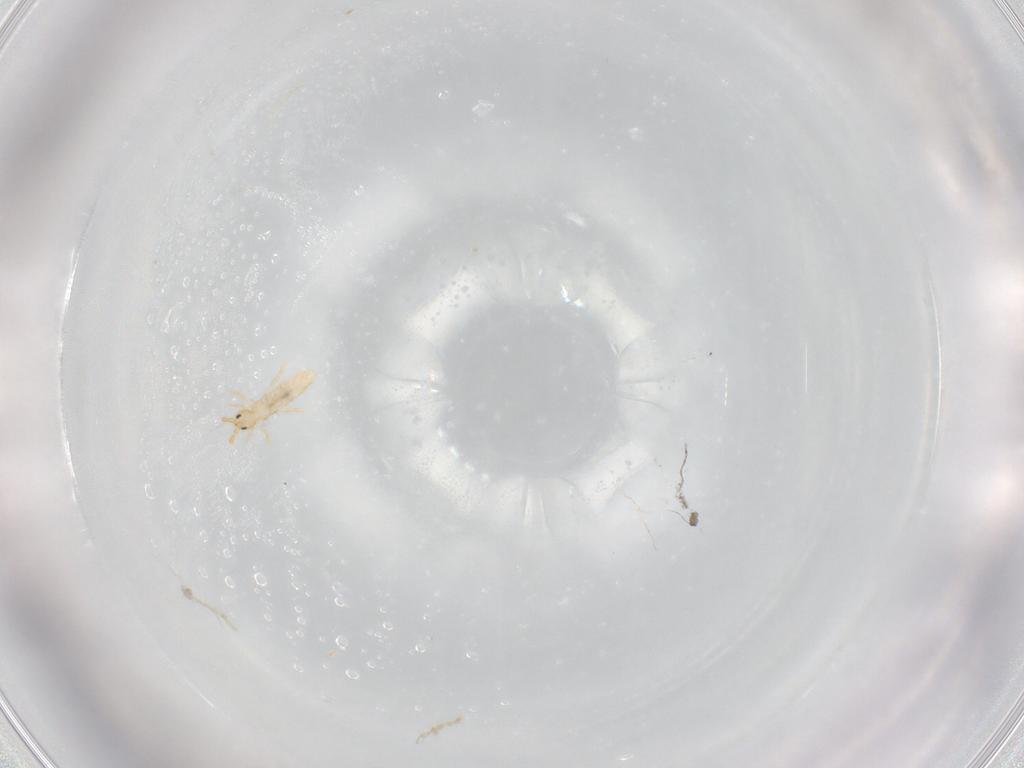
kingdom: Animalia
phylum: Arthropoda
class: Collembola
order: Entomobryomorpha
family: Entomobryidae
